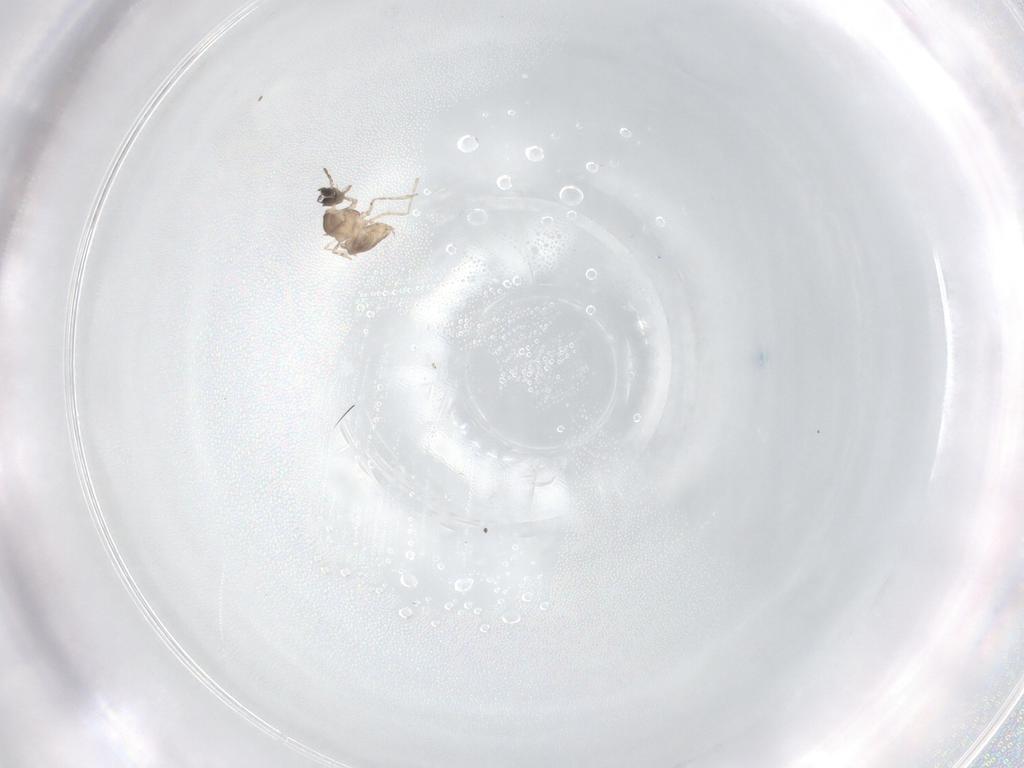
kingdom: Animalia
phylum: Arthropoda
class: Insecta
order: Diptera
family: Cecidomyiidae
